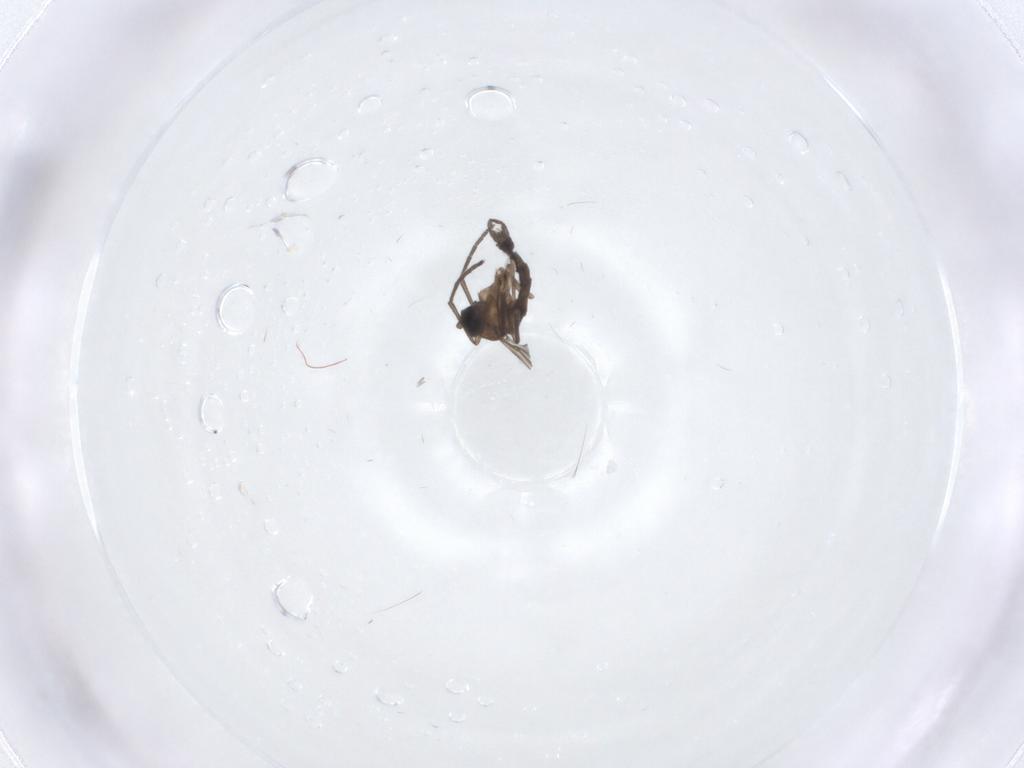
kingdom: Animalia
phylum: Arthropoda
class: Insecta
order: Diptera
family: Sciaridae
